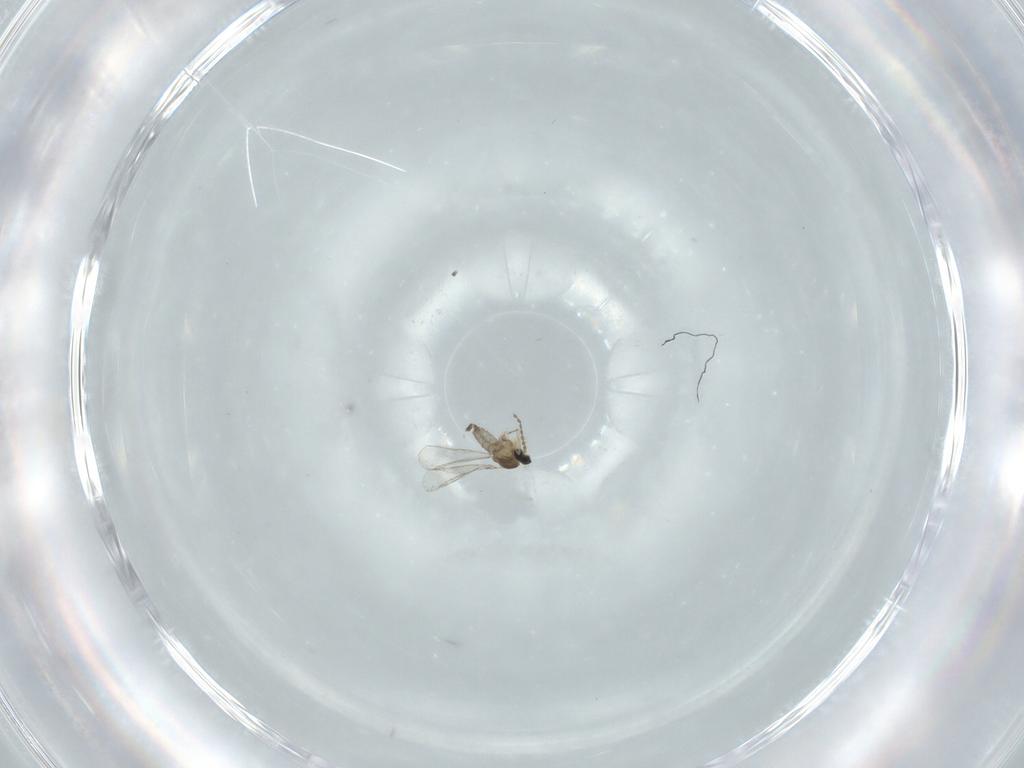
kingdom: Animalia
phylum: Arthropoda
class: Insecta
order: Diptera
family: Cecidomyiidae
